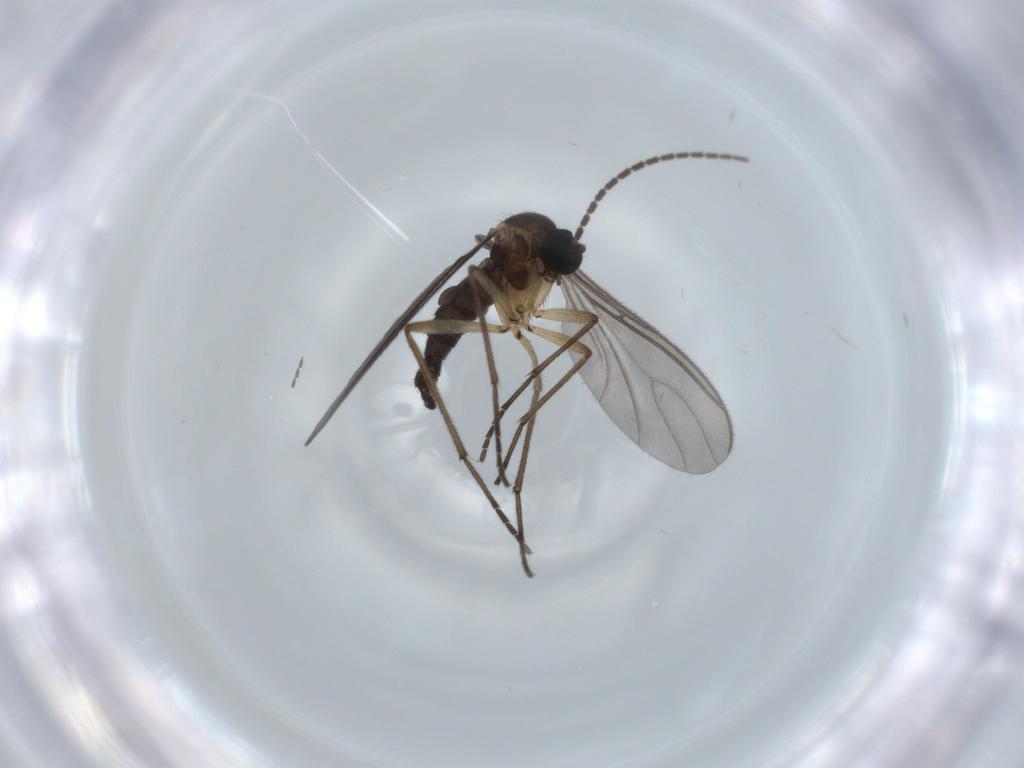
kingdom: Animalia
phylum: Arthropoda
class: Insecta
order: Diptera
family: Sciaridae
